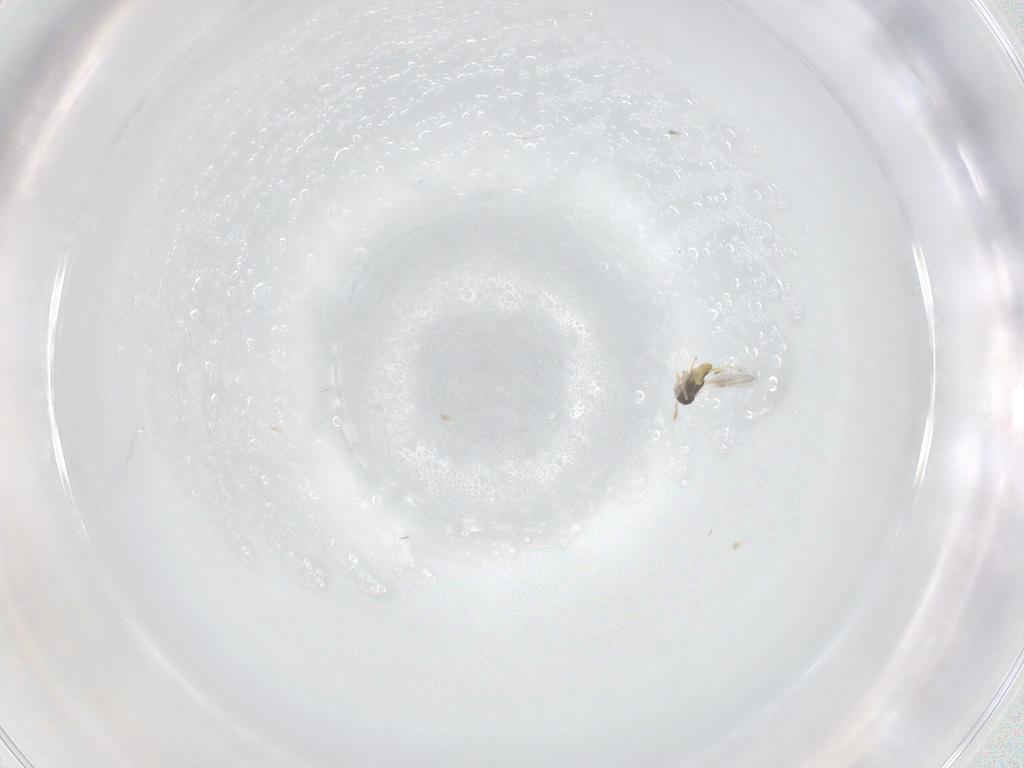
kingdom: Animalia
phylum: Arthropoda
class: Insecta
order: Hymenoptera
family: Encyrtidae
